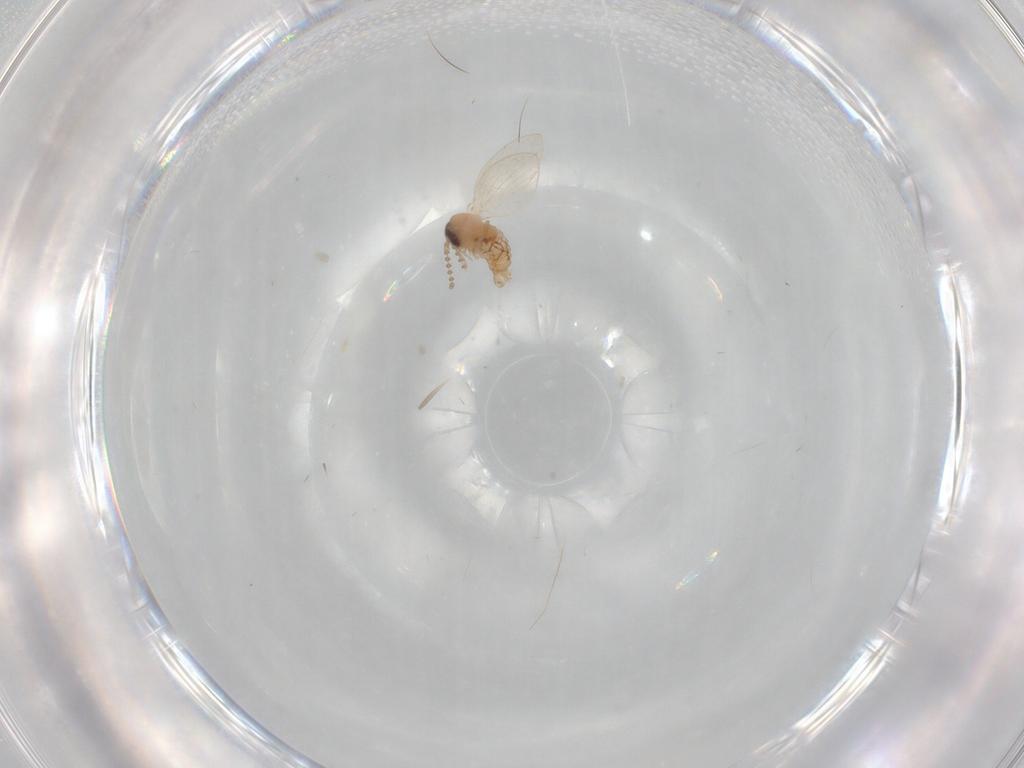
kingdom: Animalia
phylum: Arthropoda
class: Insecta
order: Diptera
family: Psychodidae
